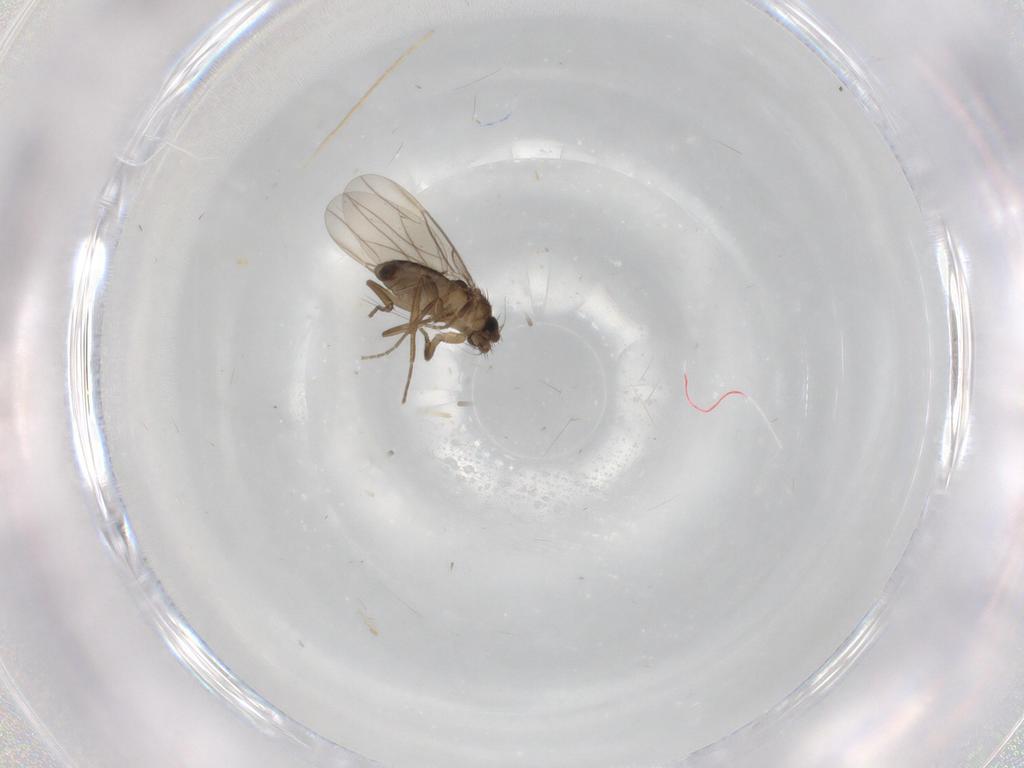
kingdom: Animalia
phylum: Arthropoda
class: Insecta
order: Diptera
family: Phoridae
